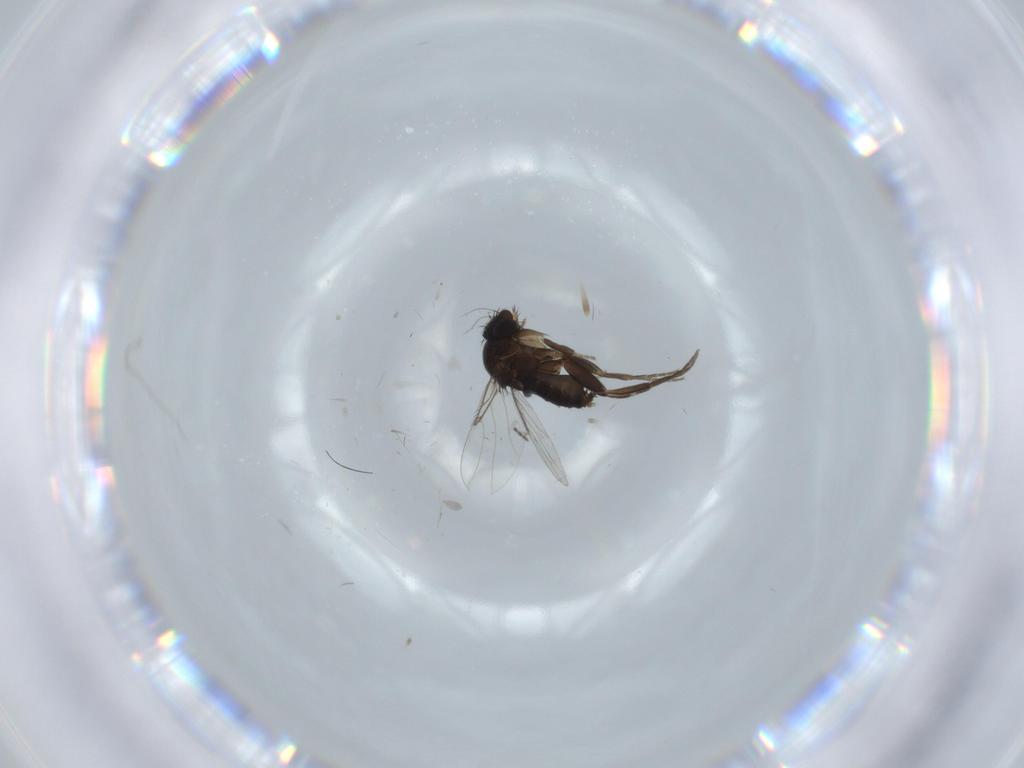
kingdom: Animalia
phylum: Arthropoda
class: Insecta
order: Diptera
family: Phoridae
